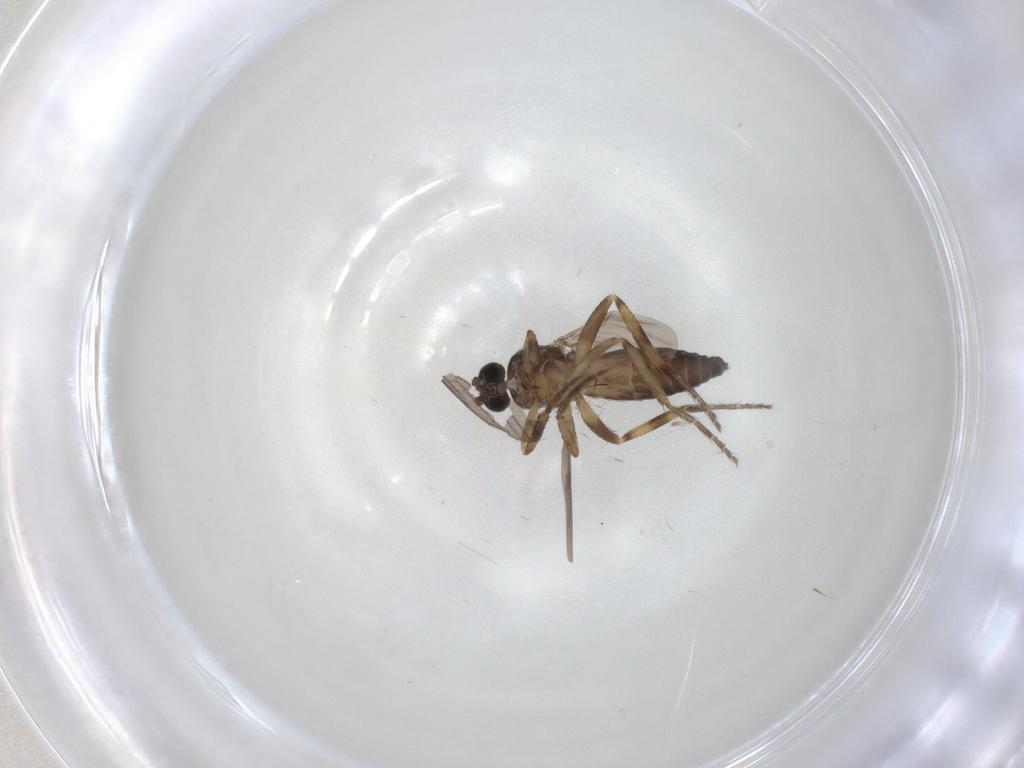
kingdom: Animalia
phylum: Arthropoda
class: Insecta
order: Diptera
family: Ceratopogonidae
